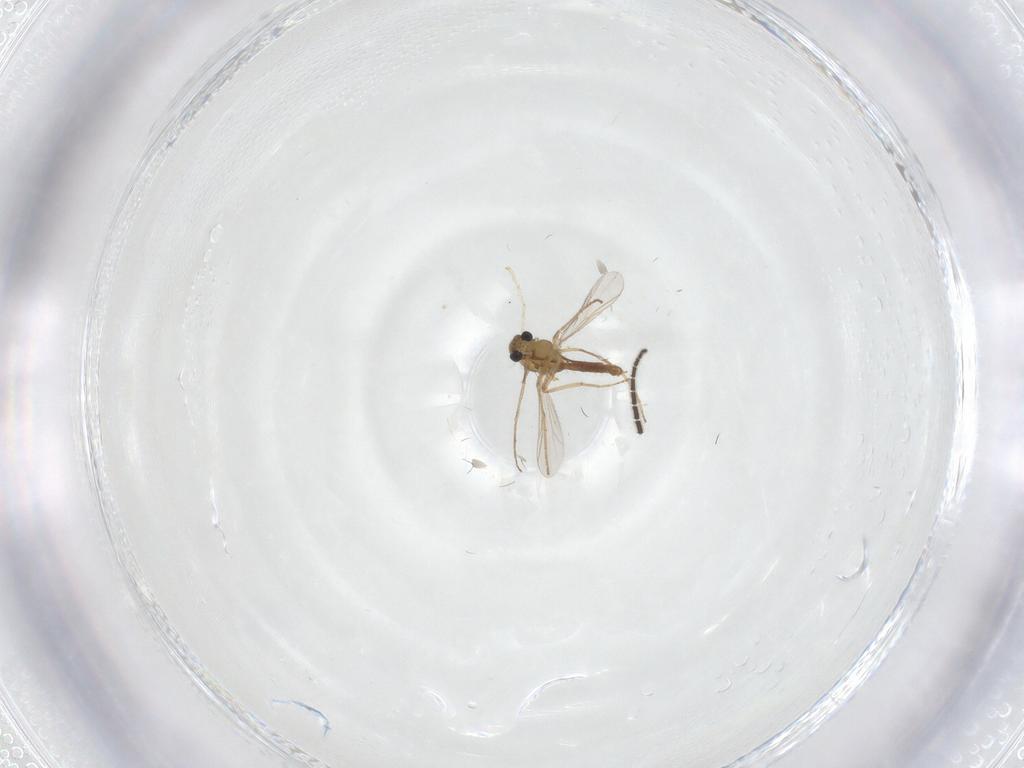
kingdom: Animalia
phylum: Arthropoda
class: Insecta
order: Diptera
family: Chironomidae
